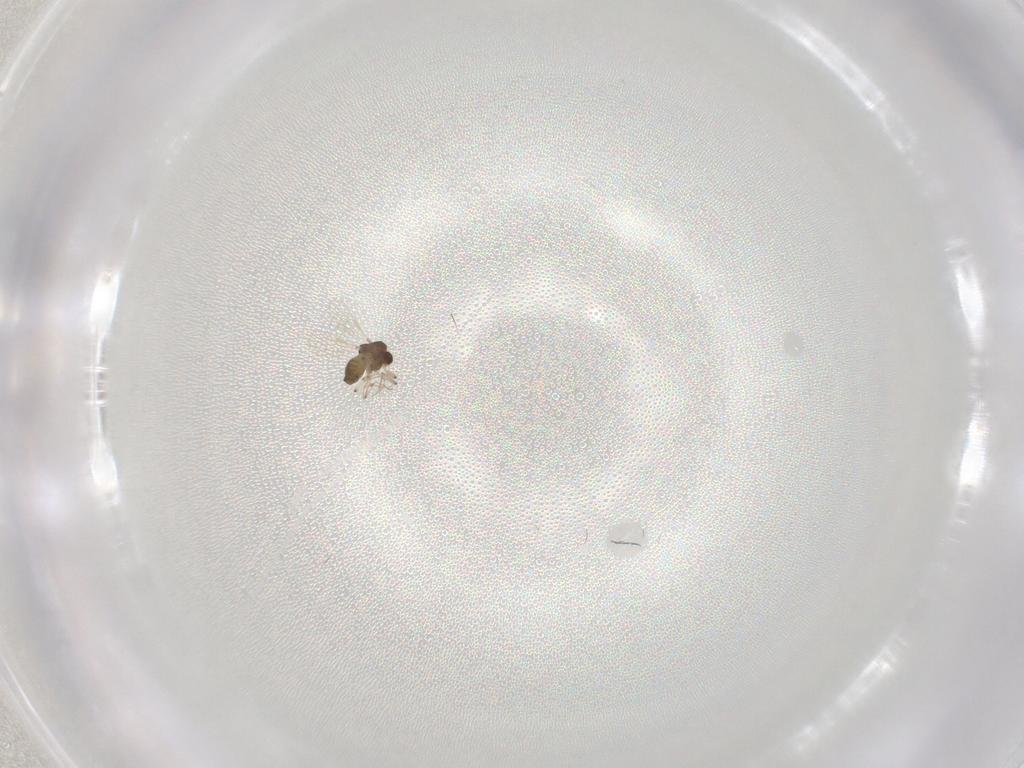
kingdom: Animalia
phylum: Arthropoda
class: Insecta
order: Diptera
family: Chironomidae
